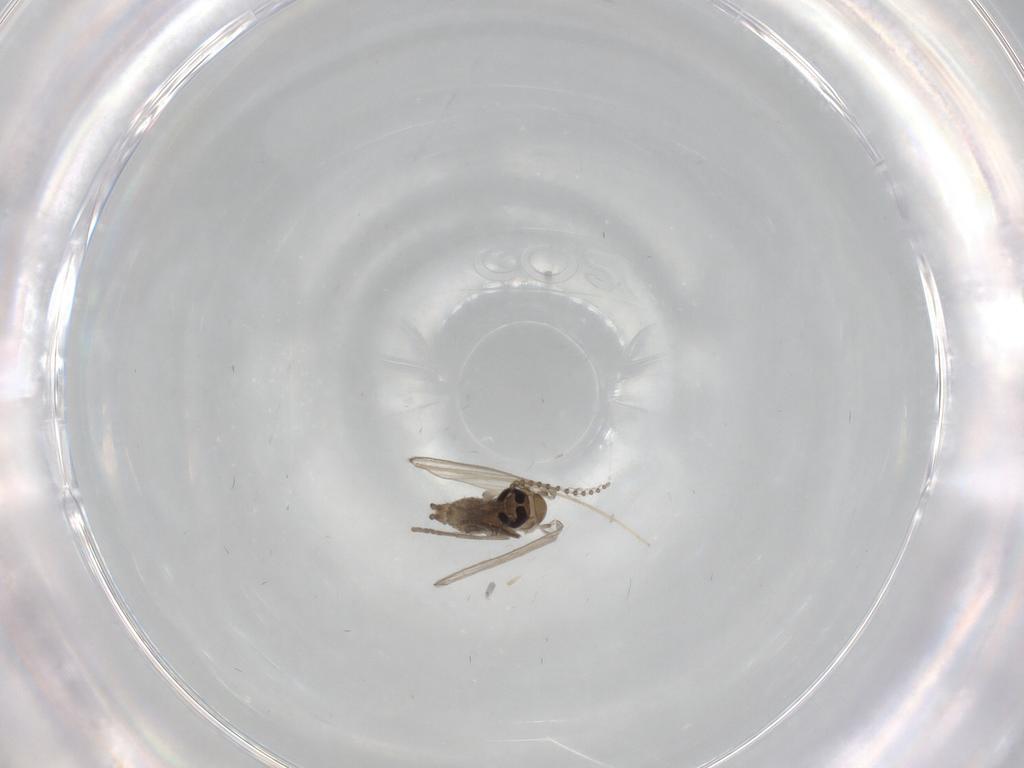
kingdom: Animalia
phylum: Arthropoda
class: Insecta
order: Diptera
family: Psychodidae
